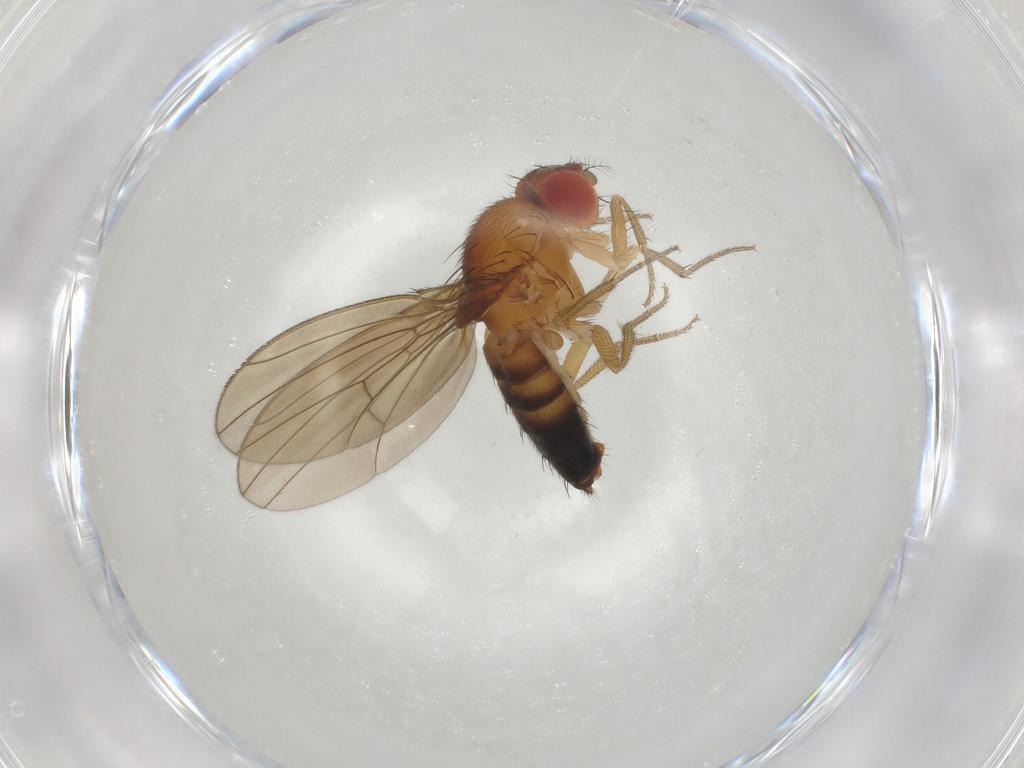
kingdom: Animalia
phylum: Arthropoda
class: Insecta
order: Diptera
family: Drosophilidae
